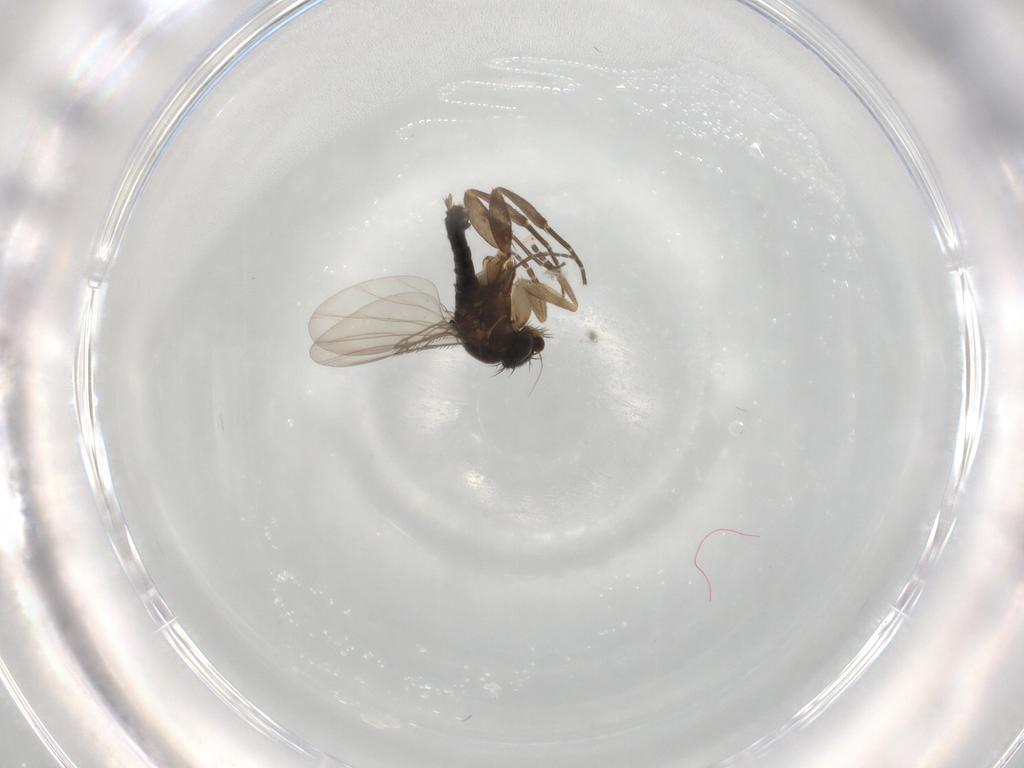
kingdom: Animalia
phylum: Arthropoda
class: Insecta
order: Diptera
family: Phoridae
